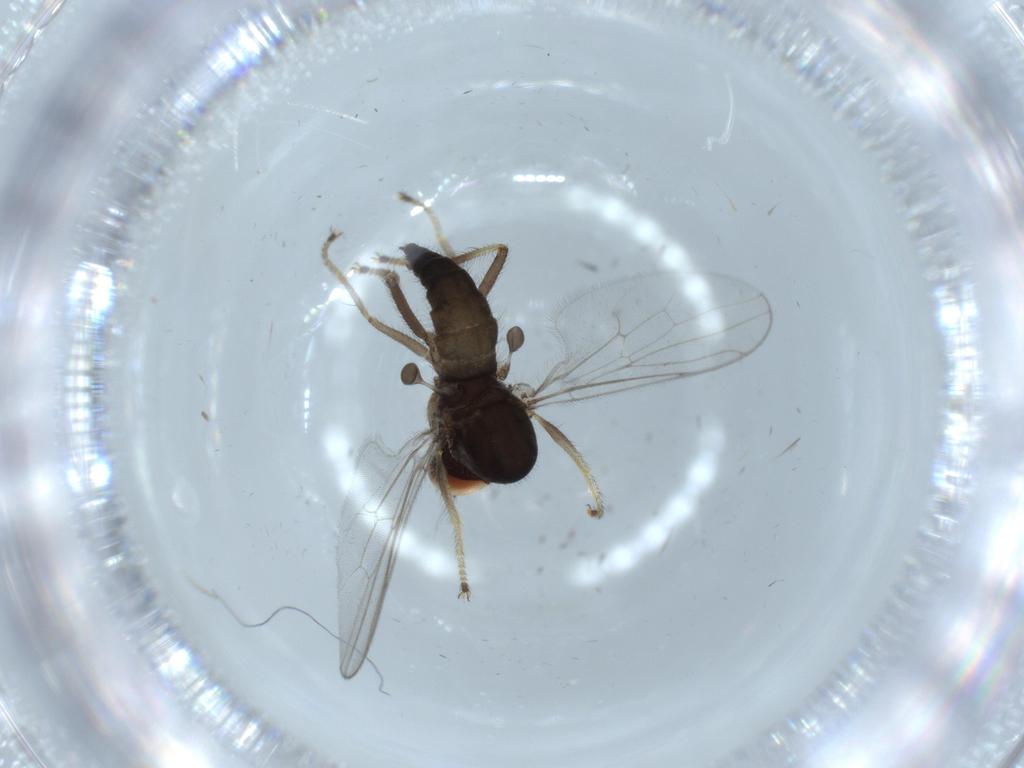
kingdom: Animalia
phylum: Arthropoda
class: Insecta
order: Diptera
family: Hybotidae
